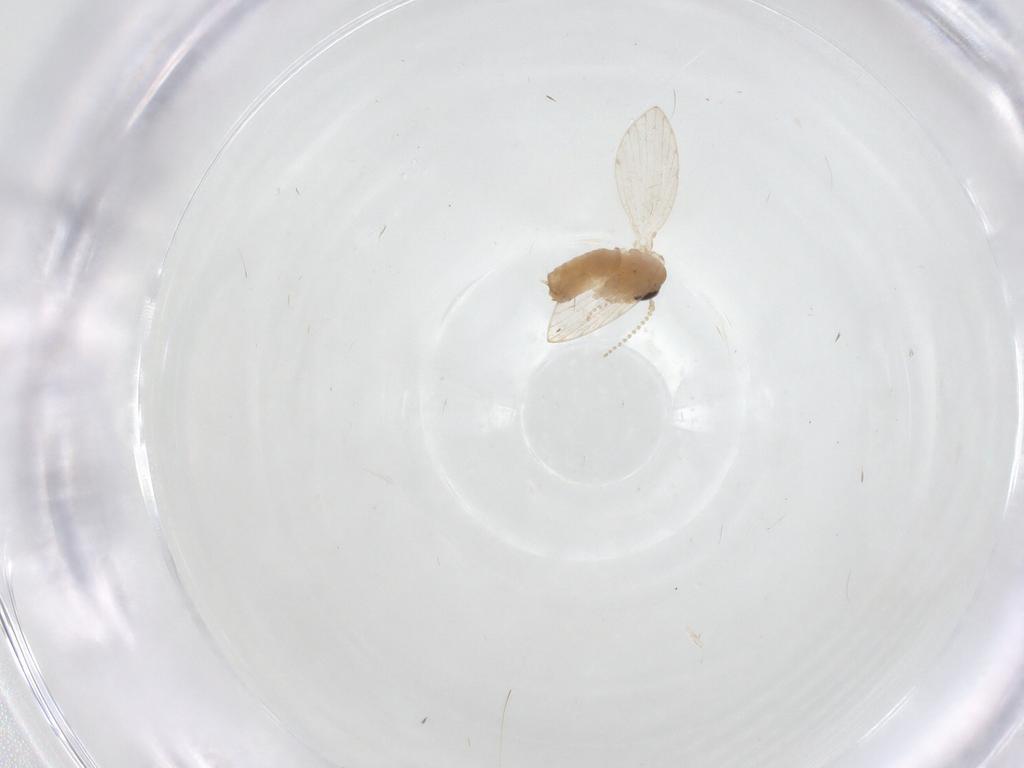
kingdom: Animalia
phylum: Arthropoda
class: Insecta
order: Diptera
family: Psychodidae
